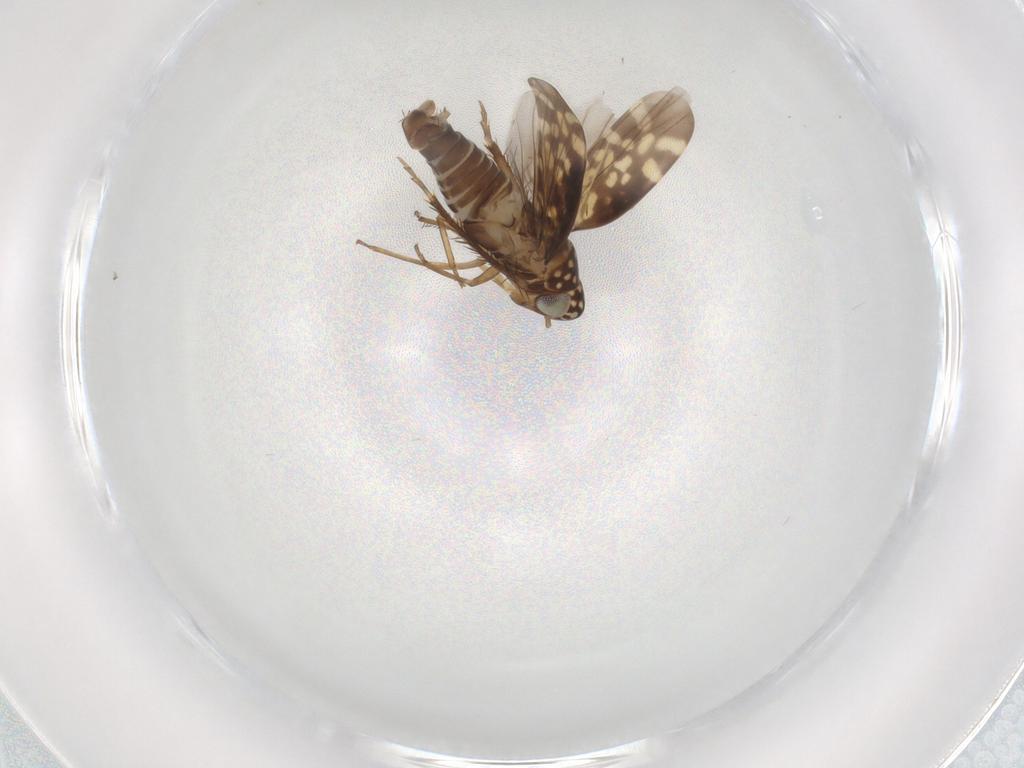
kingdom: Animalia
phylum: Arthropoda
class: Insecta
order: Hemiptera
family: Cicadellidae
